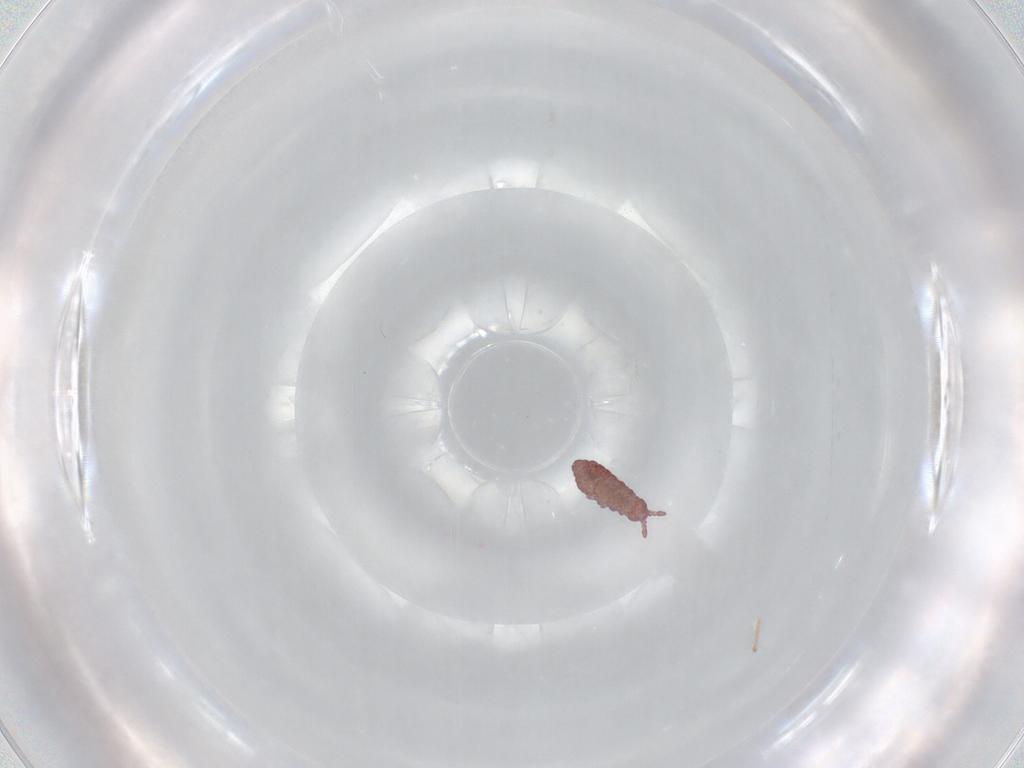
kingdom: Animalia
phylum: Arthropoda
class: Collembola
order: Poduromorpha
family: Hypogastruridae
